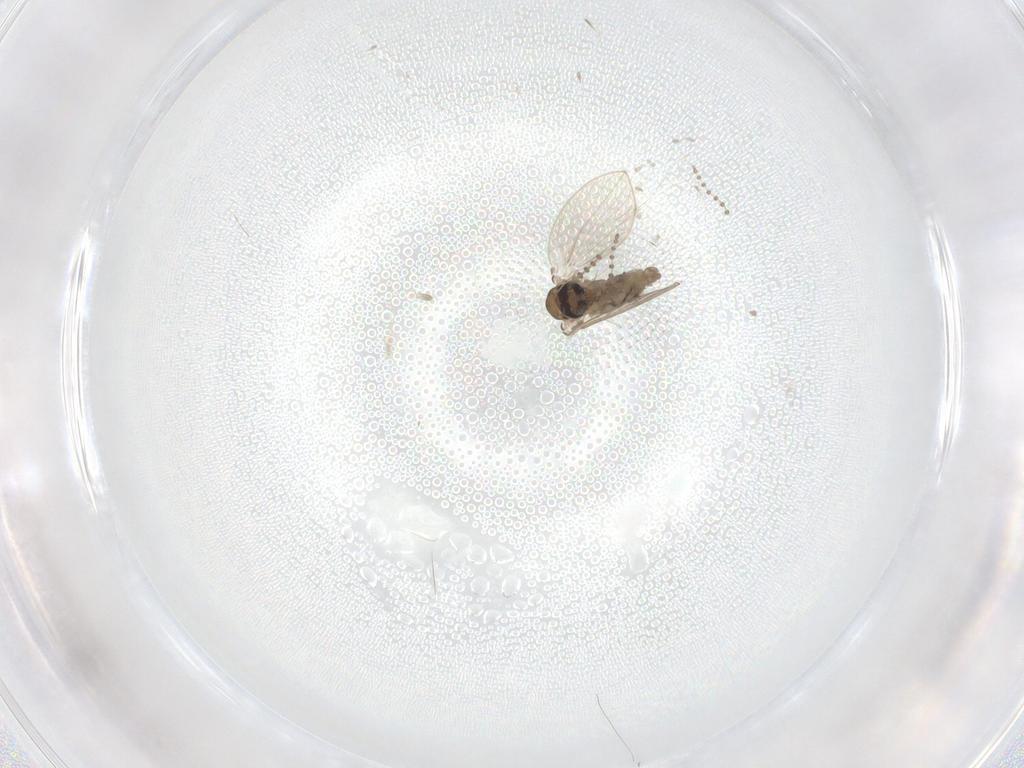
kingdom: Animalia
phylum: Arthropoda
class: Insecta
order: Diptera
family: Psychodidae
